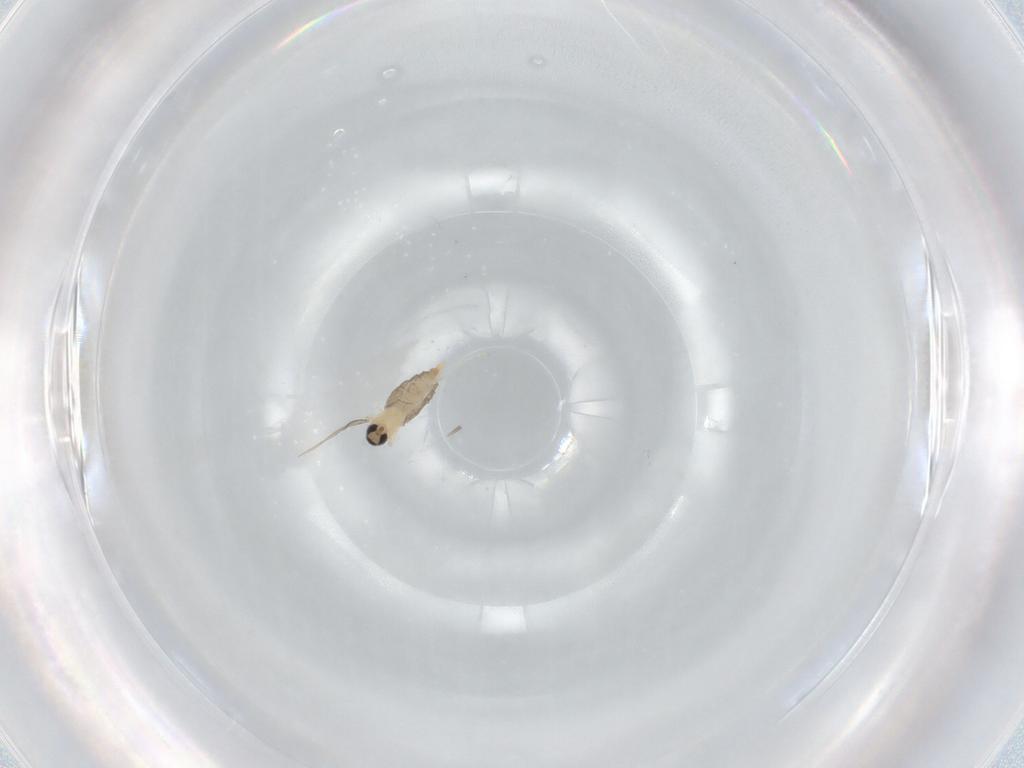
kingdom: Animalia
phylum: Arthropoda
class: Insecta
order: Diptera
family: Cecidomyiidae
